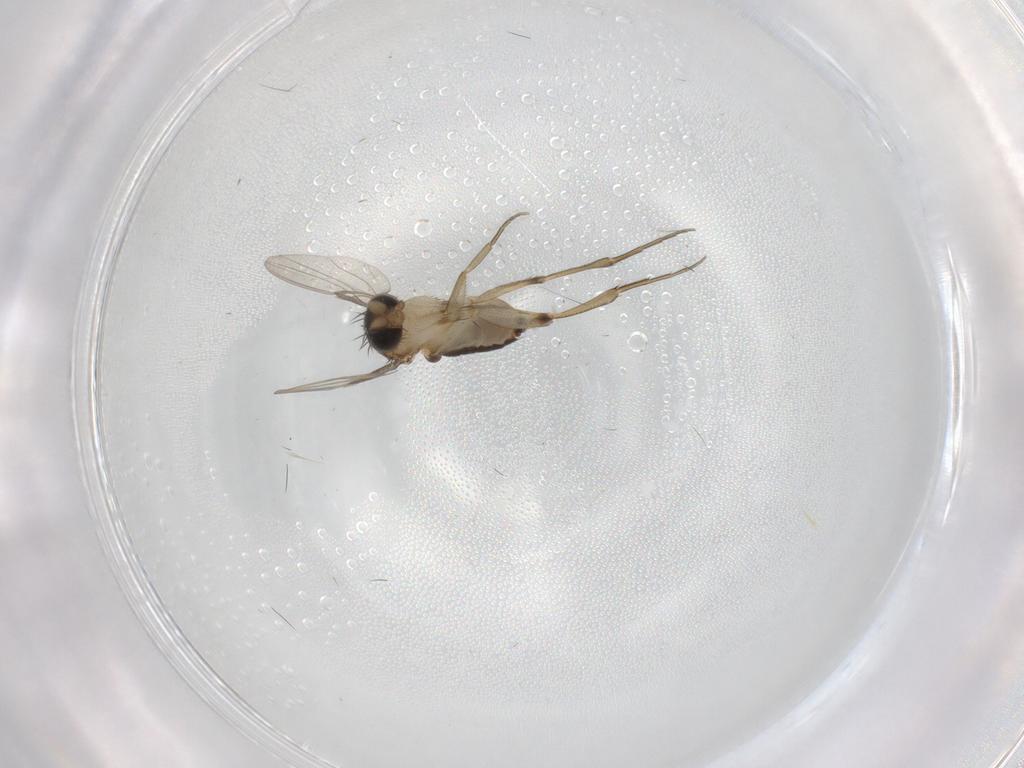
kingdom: Animalia
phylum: Arthropoda
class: Insecta
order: Diptera
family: Phoridae
